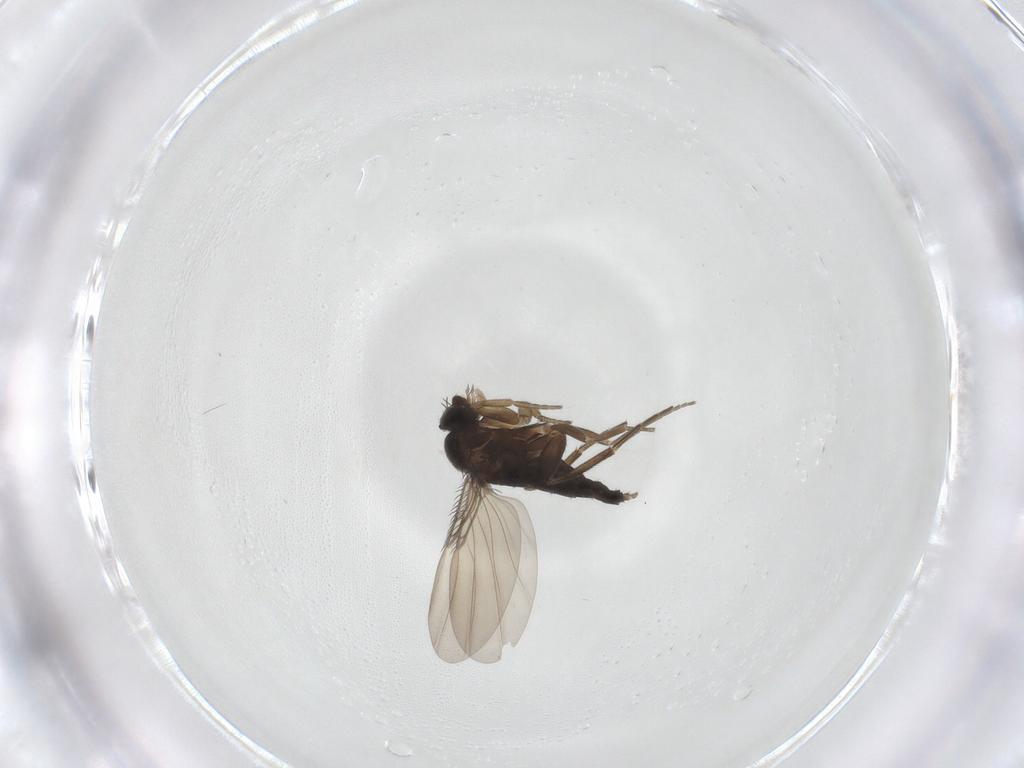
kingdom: Animalia
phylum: Arthropoda
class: Insecta
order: Diptera
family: Phoridae
